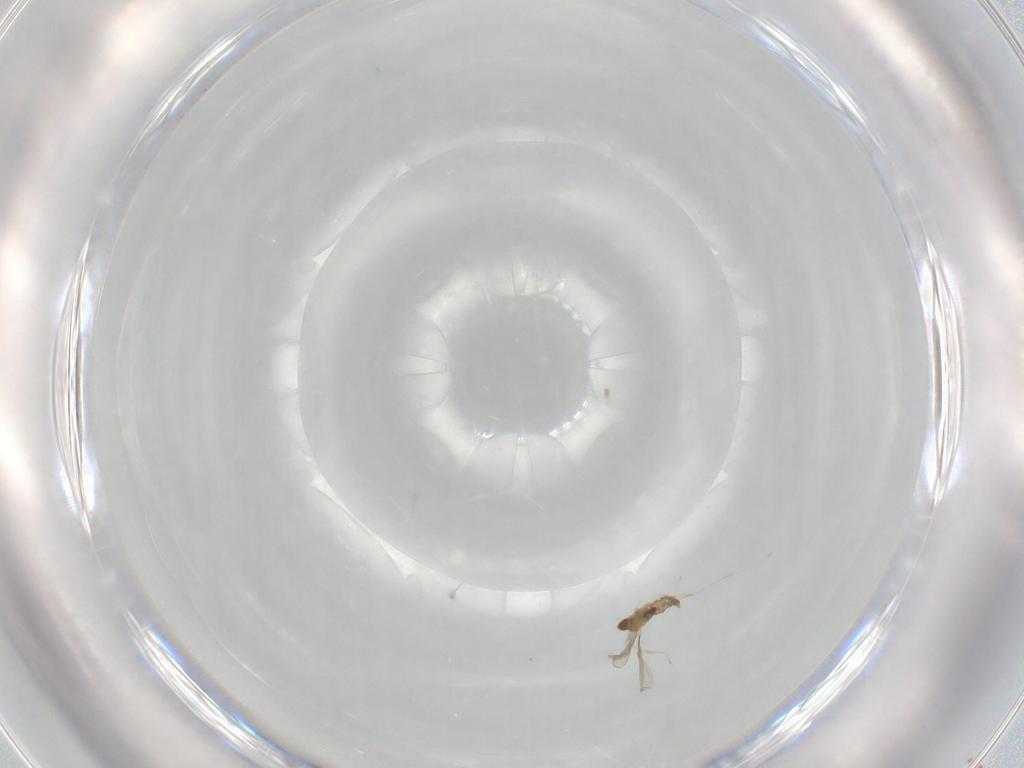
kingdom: Animalia
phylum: Arthropoda
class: Insecta
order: Diptera
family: Cecidomyiidae
